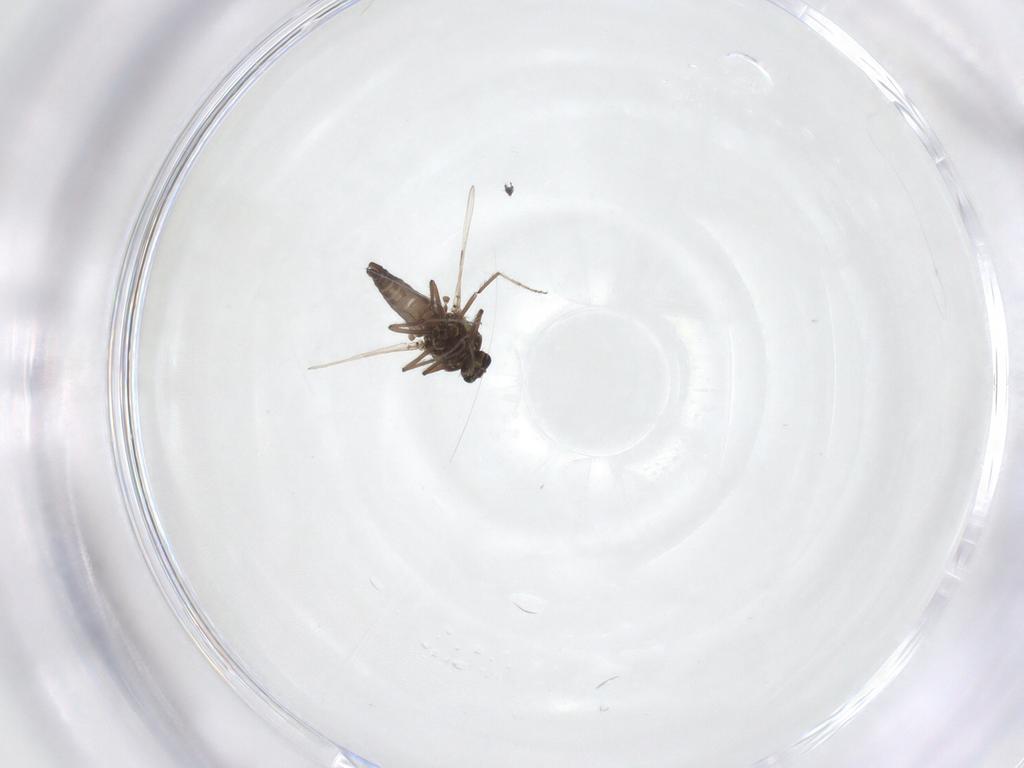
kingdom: Animalia
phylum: Arthropoda
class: Insecta
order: Diptera
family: Ceratopogonidae
